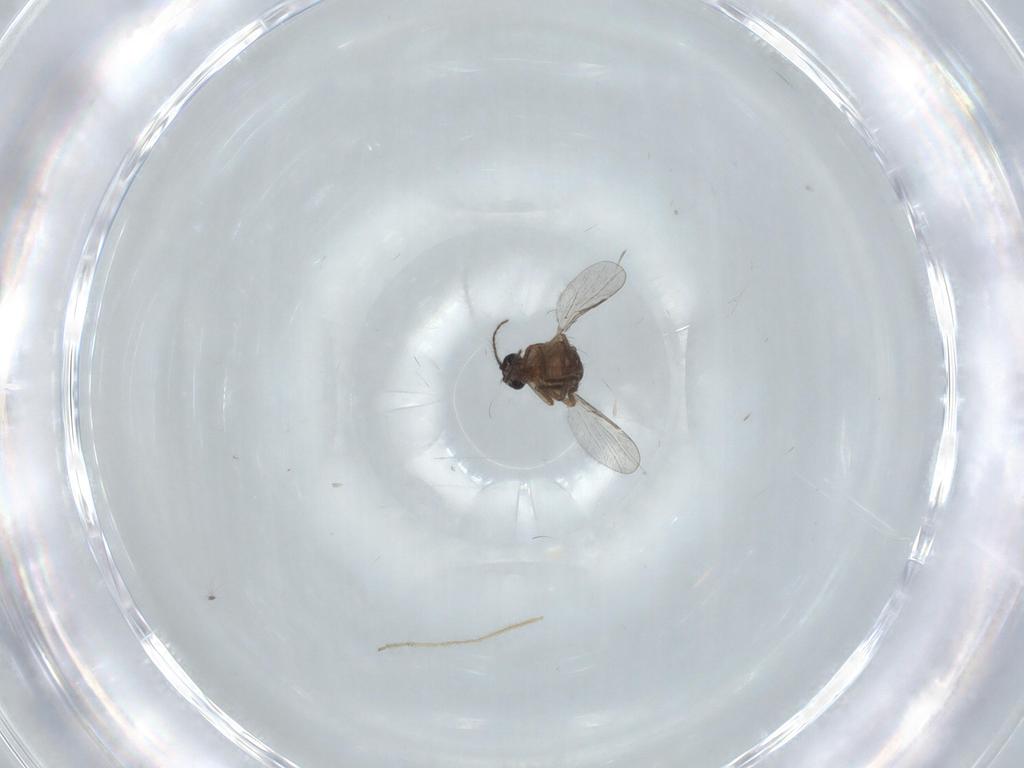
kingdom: Animalia
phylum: Arthropoda
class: Insecta
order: Diptera
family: Culicidae
